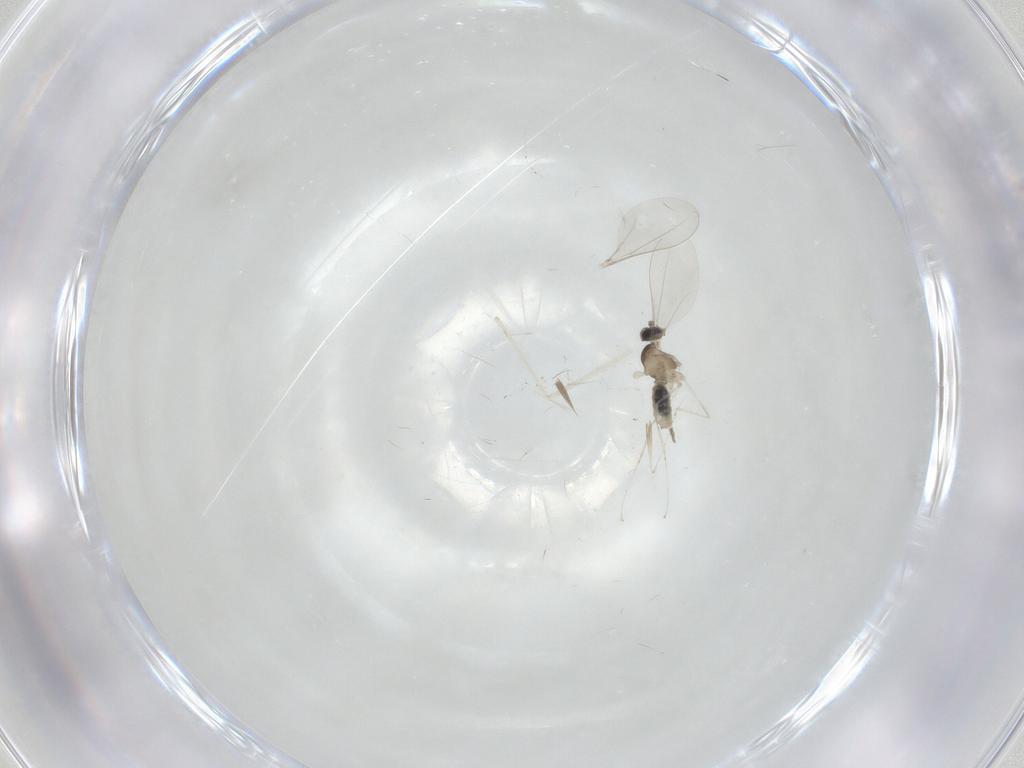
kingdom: Animalia
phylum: Arthropoda
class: Insecta
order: Diptera
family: Cecidomyiidae
